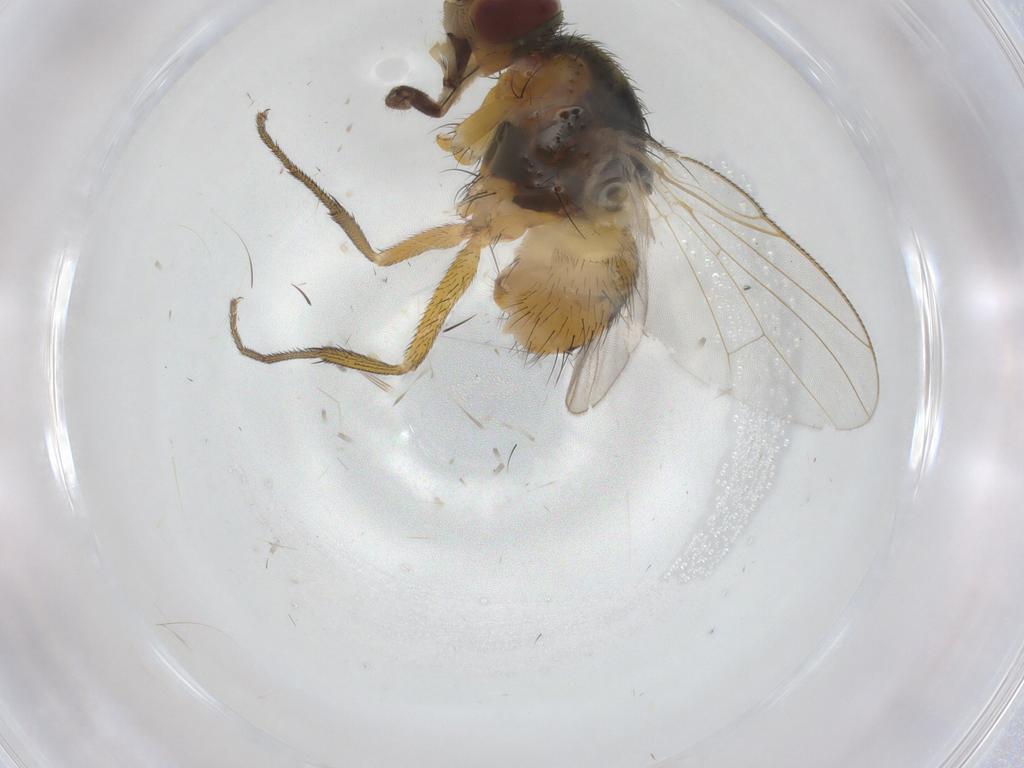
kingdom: Animalia
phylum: Arthropoda
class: Insecta
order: Diptera
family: Muscidae
